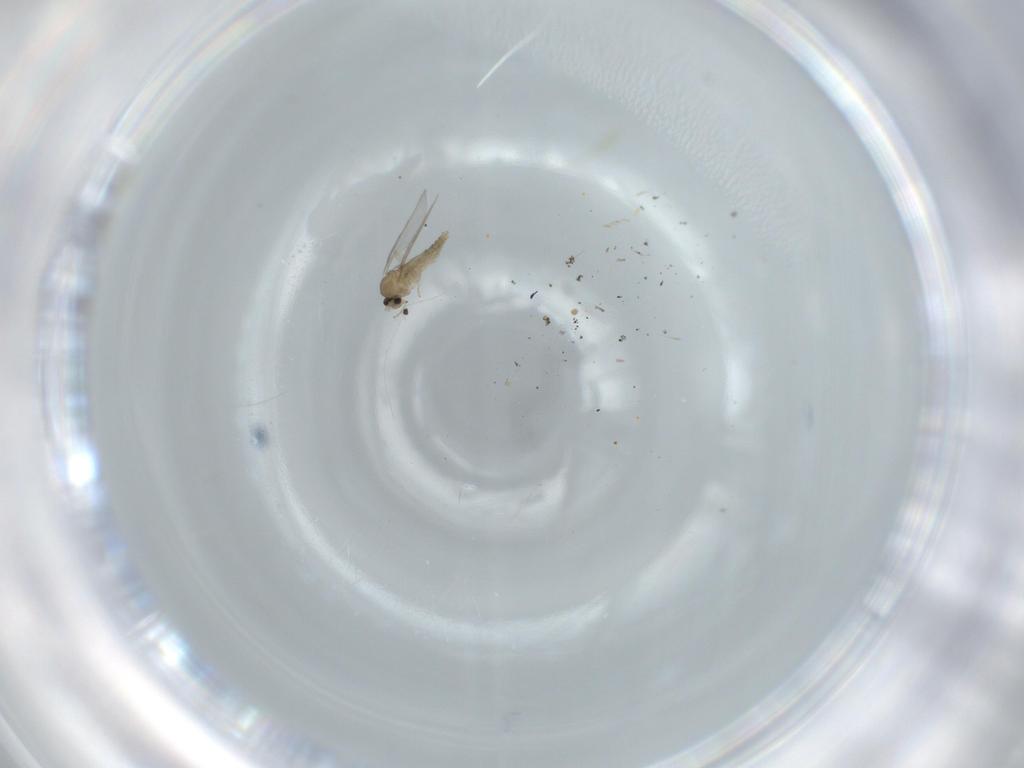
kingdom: Animalia
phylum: Arthropoda
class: Insecta
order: Diptera
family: Cecidomyiidae
